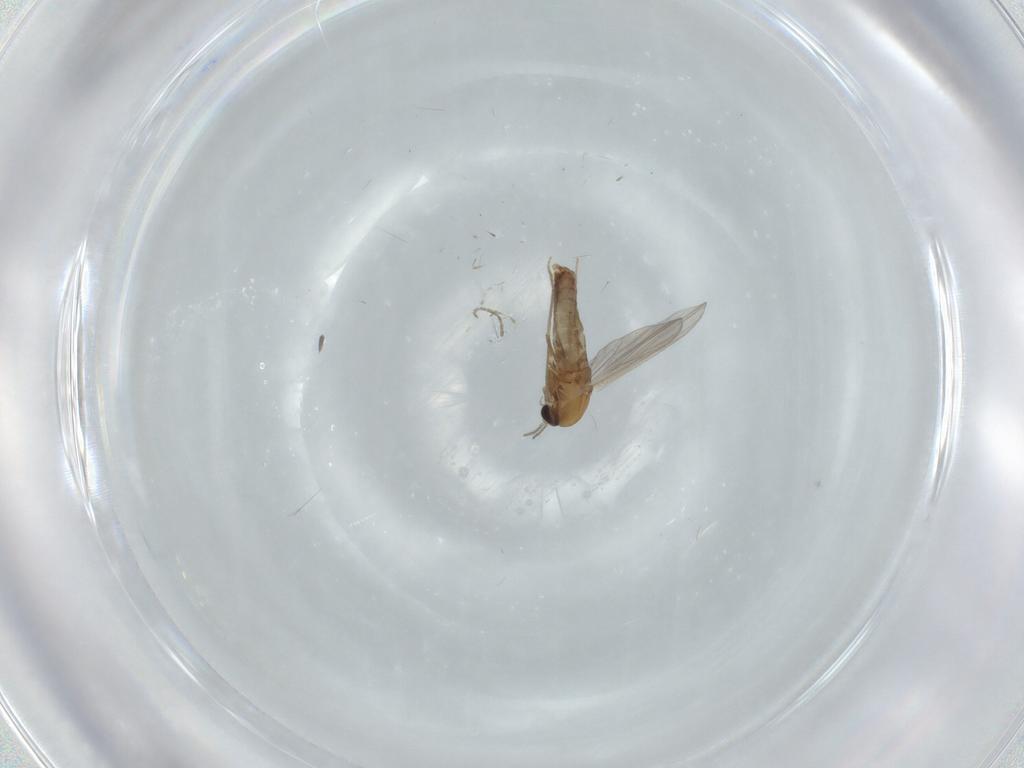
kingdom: Animalia
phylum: Arthropoda
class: Insecta
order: Diptera
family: Chironomidae
